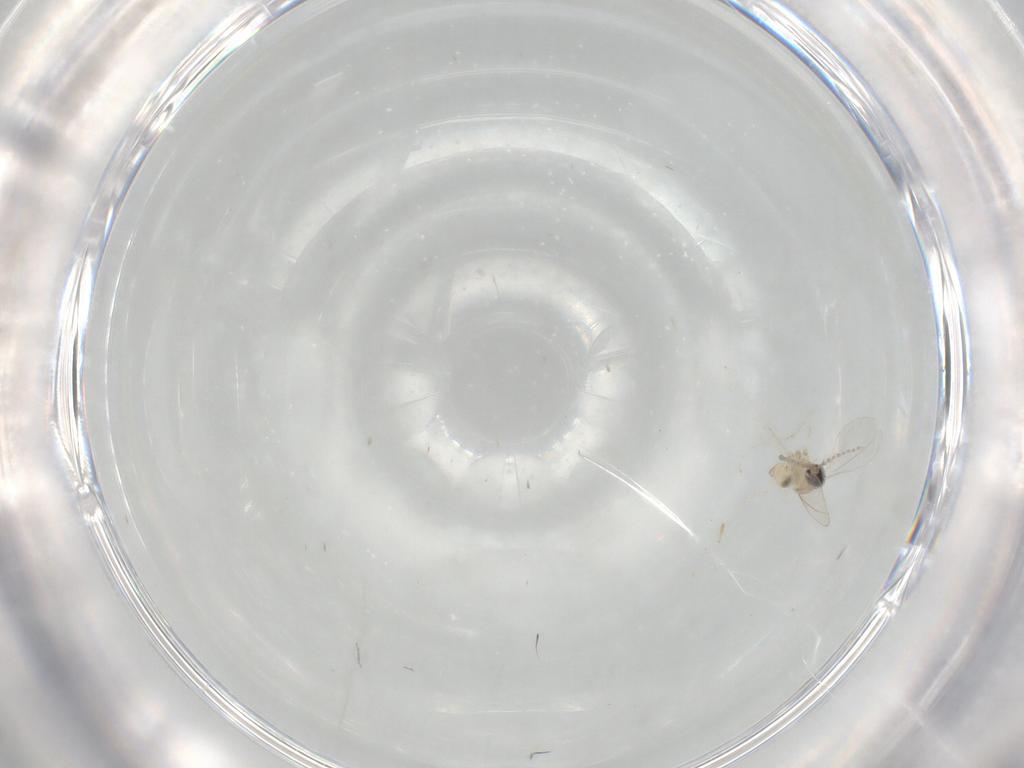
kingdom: Animalia
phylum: Arthropoda
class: Insecta
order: Diptera
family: Cecidomyiidae
